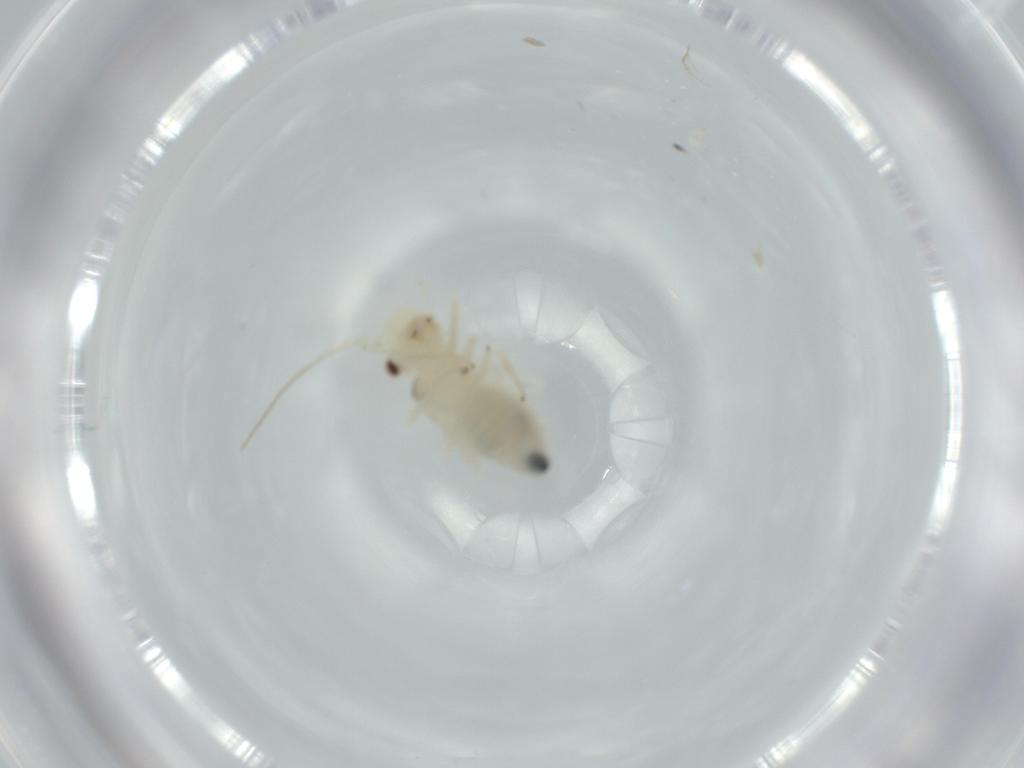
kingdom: Animalia
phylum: Arthropoda
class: Insecta
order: Psocodea
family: Caeciliusidae
